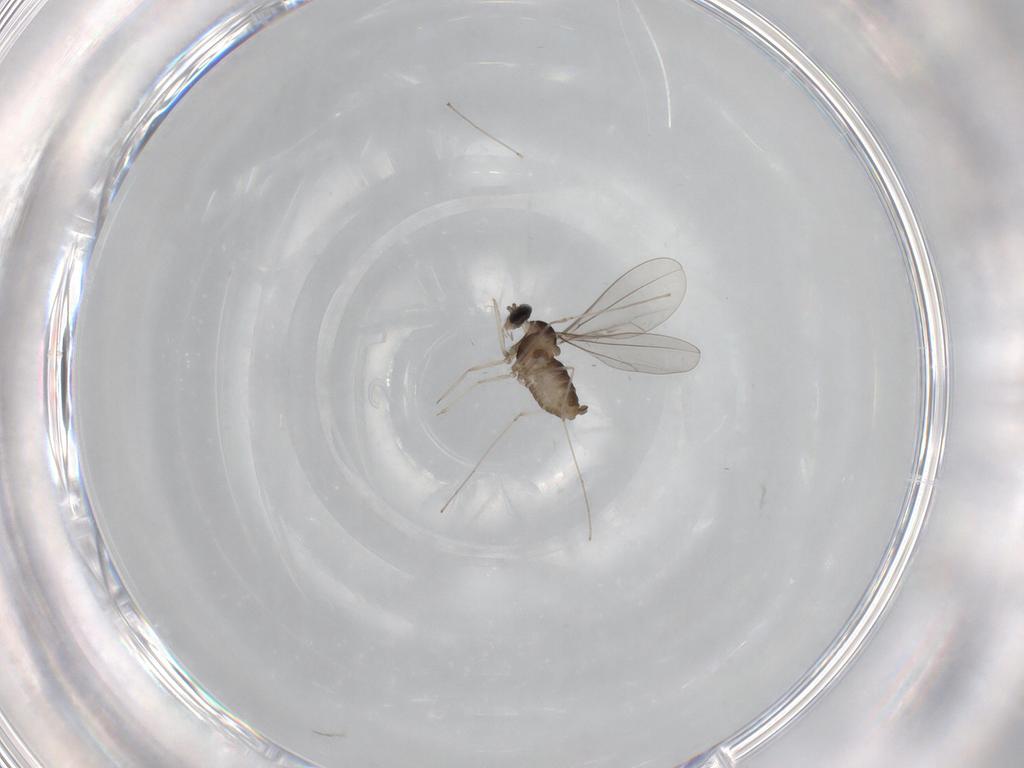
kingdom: Animalia
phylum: Arthropoda
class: Insecta
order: Diptera
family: Cecidomyiidae
